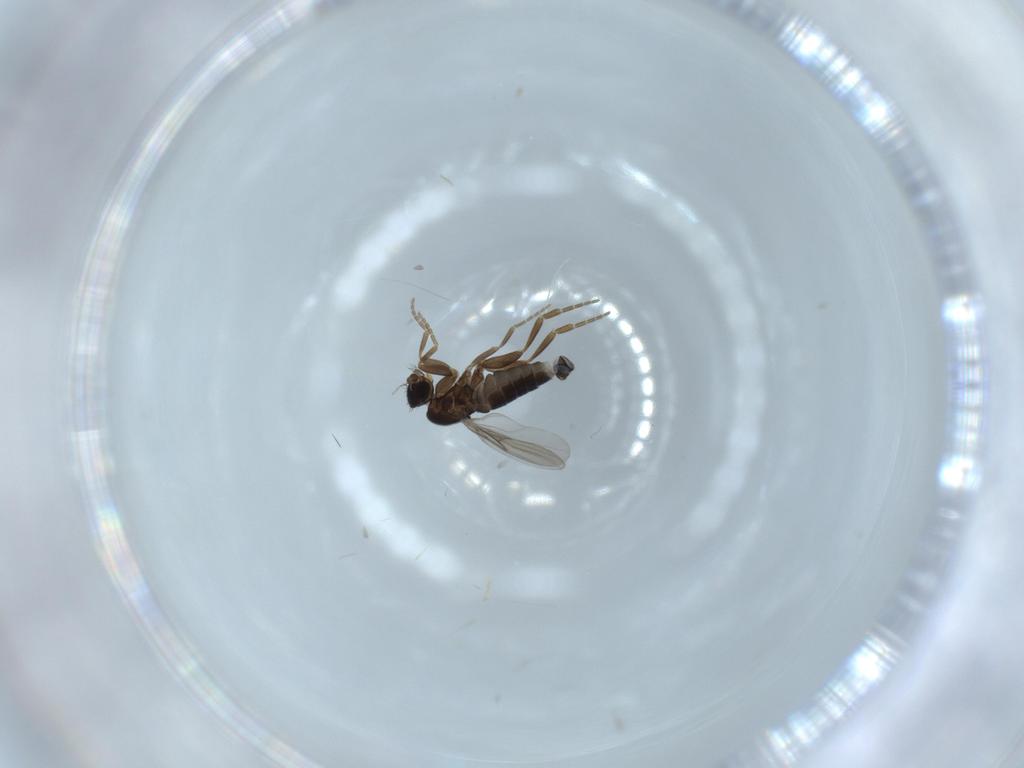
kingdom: Animalia
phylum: Arthropoda
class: Insecta
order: Diptera
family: Phoridae
